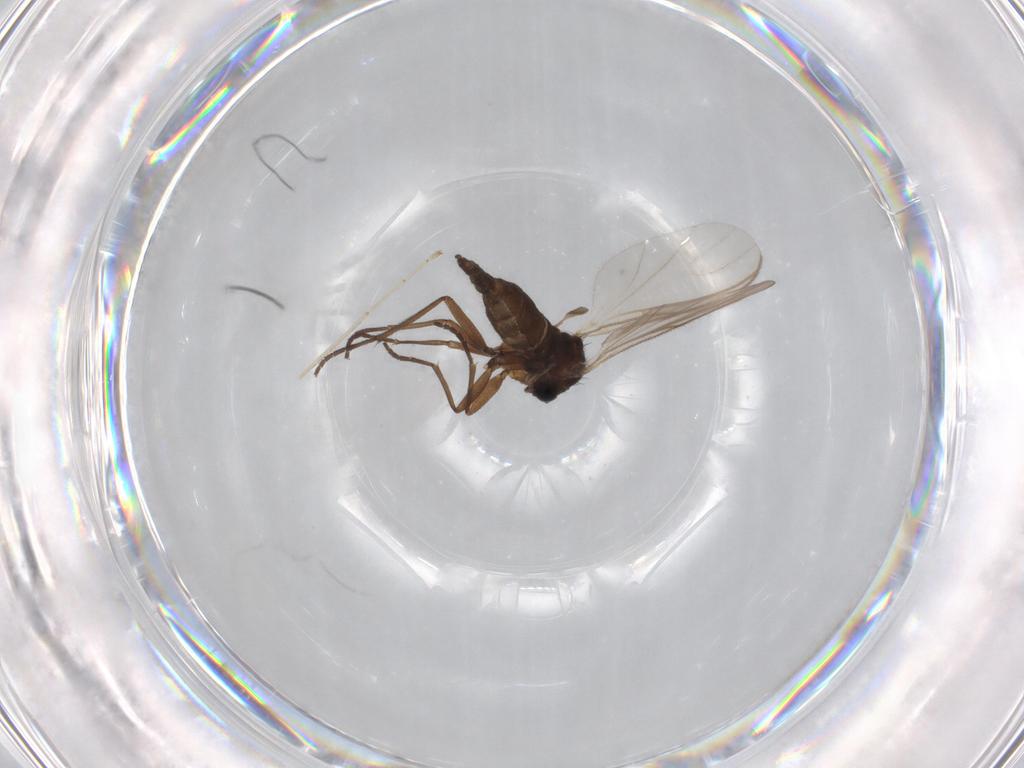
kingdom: Animalia
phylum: Arthropoda
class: Insecta
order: Diptera
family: Sciaridae
